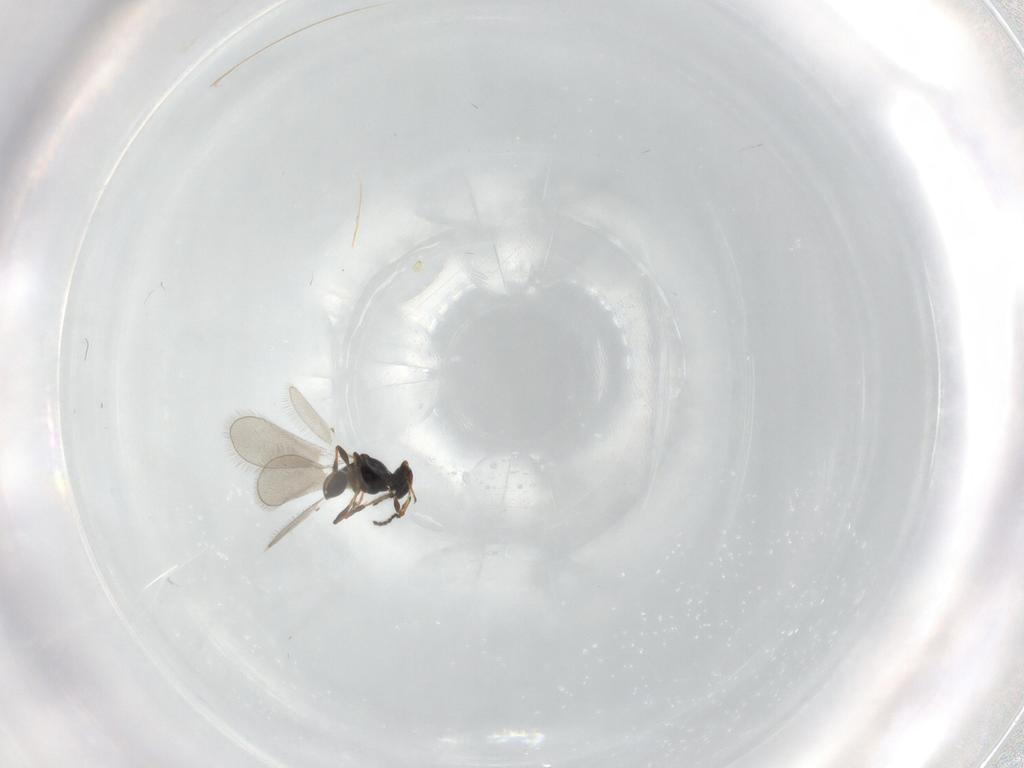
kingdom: Animalia
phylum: Arthropoda
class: Insecta
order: Hymenoptera
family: Platygastridae
